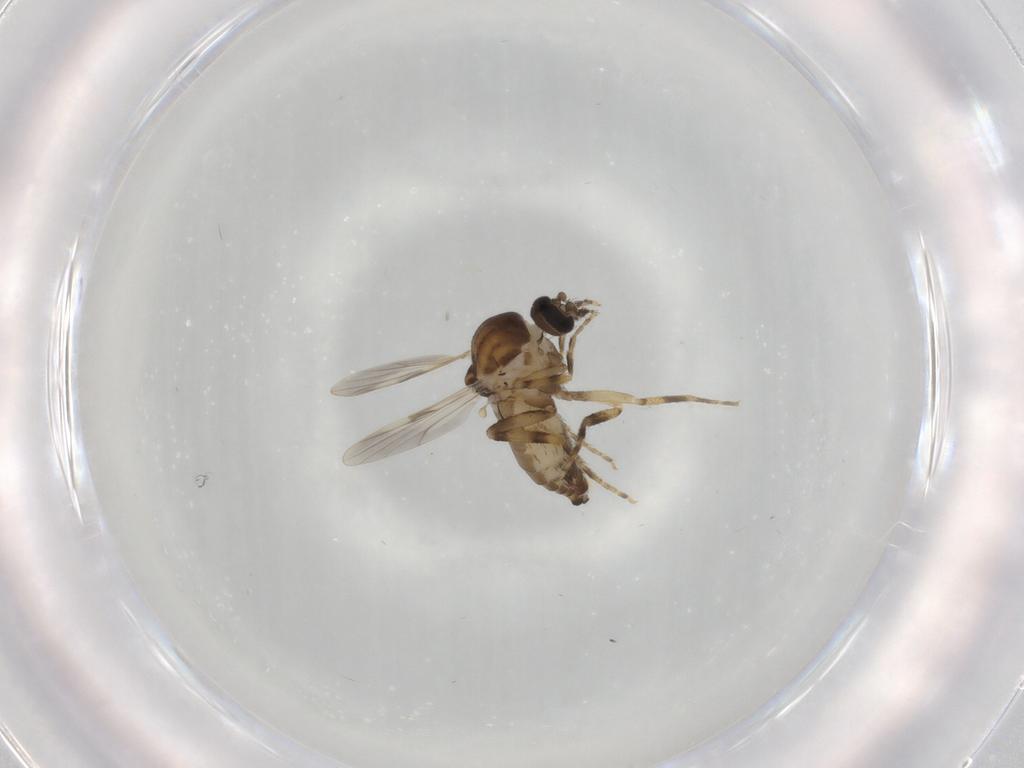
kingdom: Animalia
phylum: Arthropoda
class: Insecta
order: Diptera
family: Ceratopogonidae
